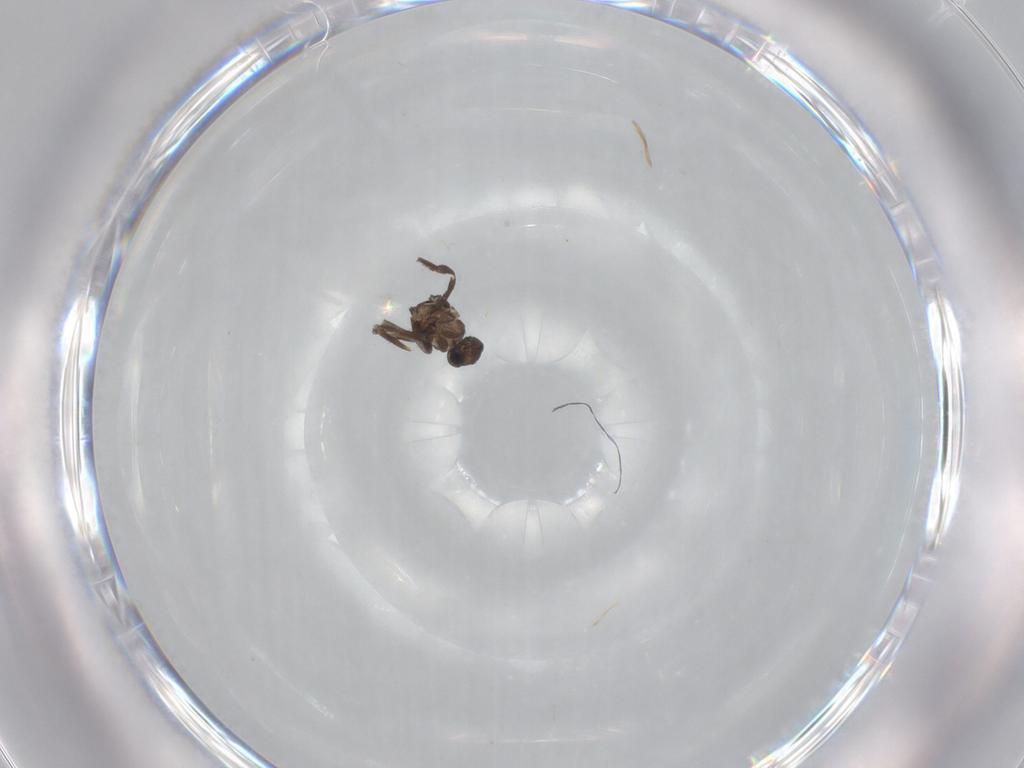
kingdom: Animalia
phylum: Arthropoda
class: Insecta
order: Diptera
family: Phoridae
